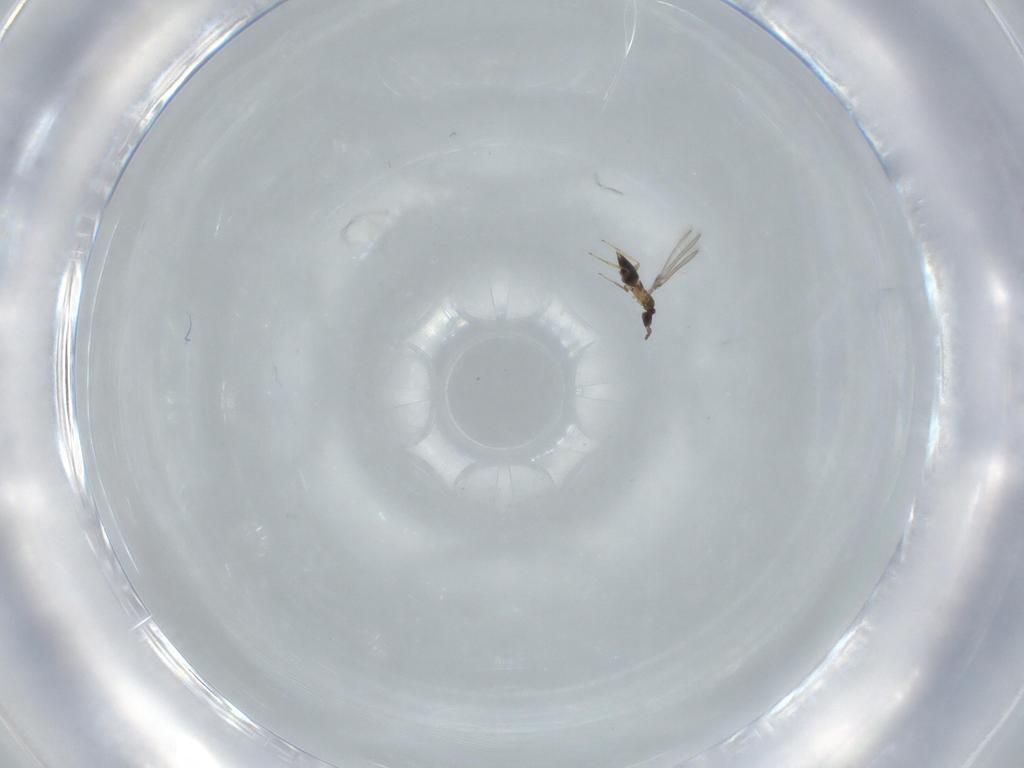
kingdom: Animalia
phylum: Arthropoda
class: Insecta
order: Hymenoptera
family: Mymaridae
